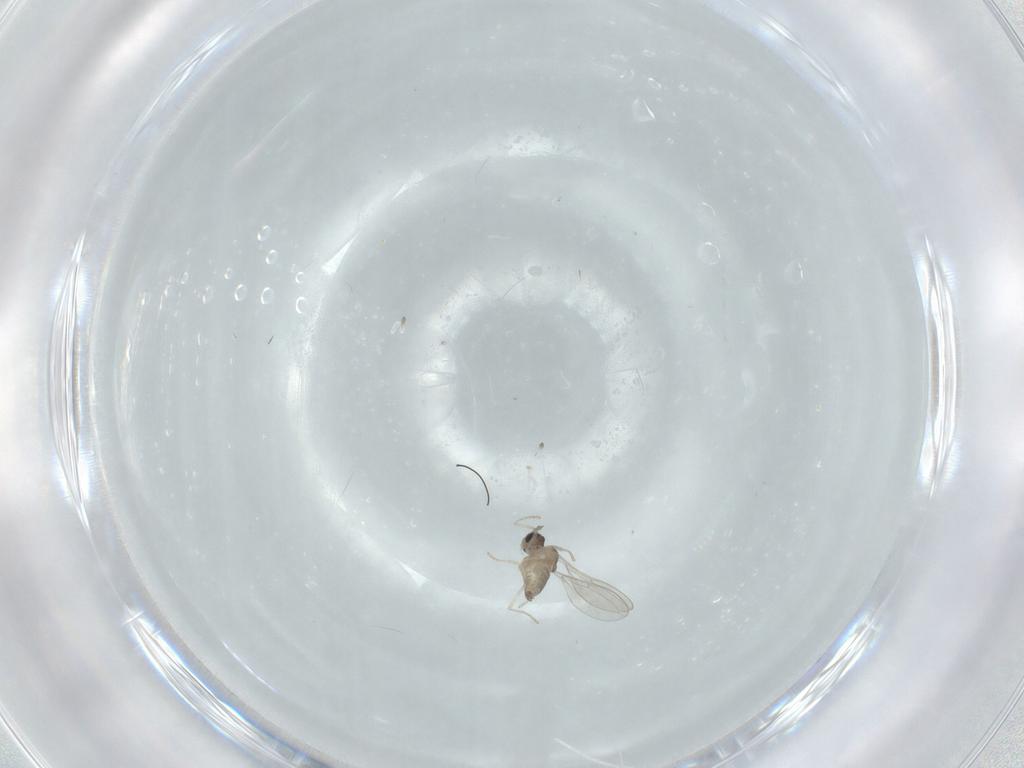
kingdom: Animalia
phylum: Arthropoda
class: Insecta
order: Diptera
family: Cecidomyiidae
